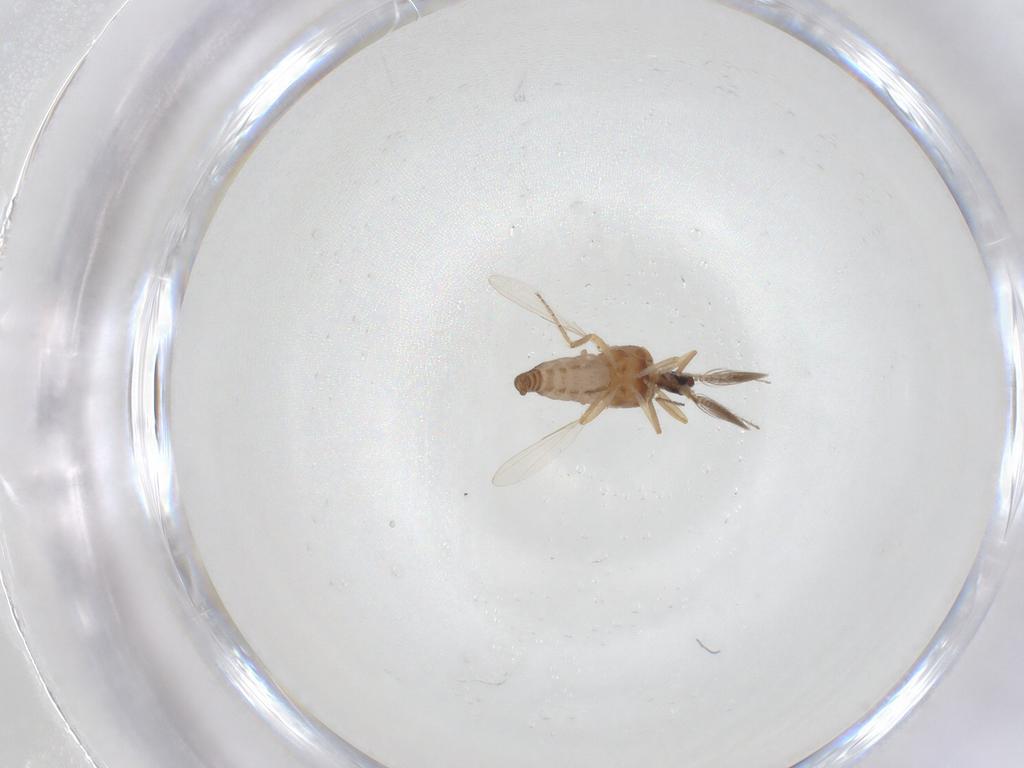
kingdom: Animalia
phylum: Arthropoda
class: Insecta
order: Diptera
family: Ceratopogonidae
